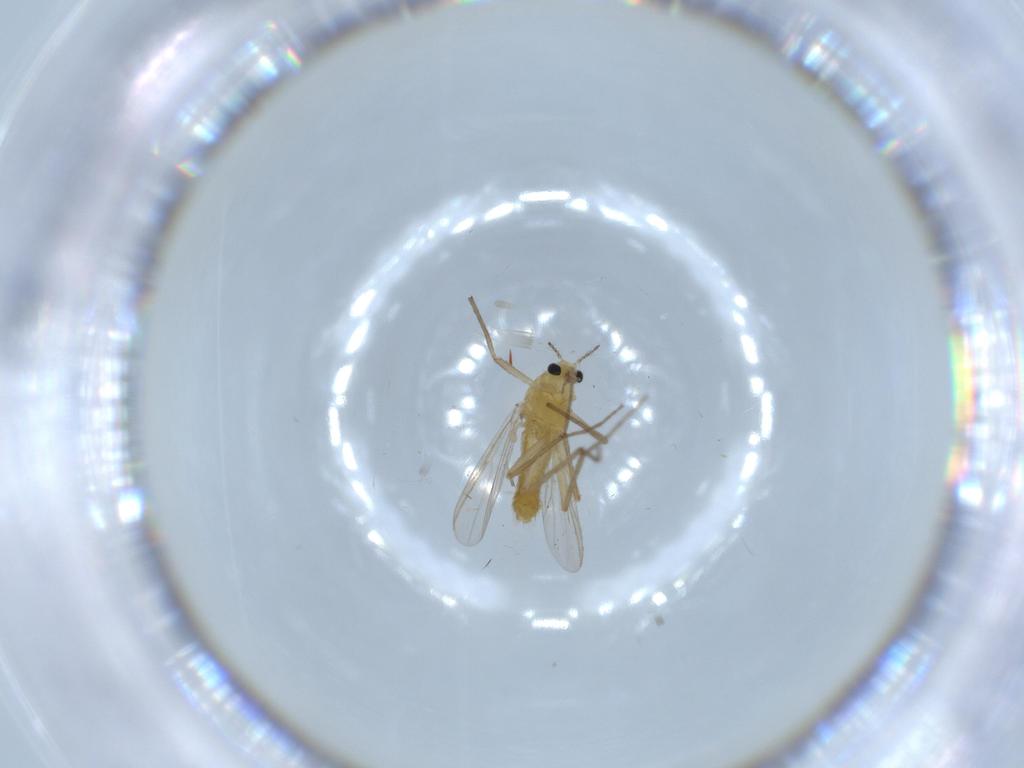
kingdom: Animalia
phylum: Arthropoda
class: Insecta
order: Diptera
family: Chironomidae
